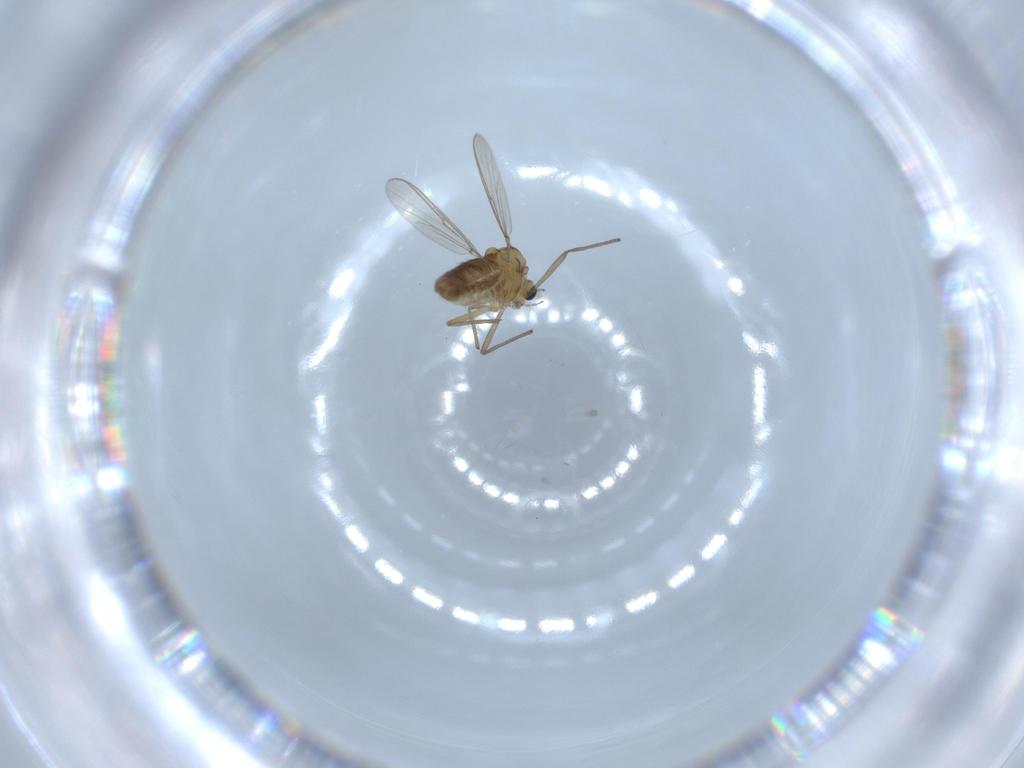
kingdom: Animalia
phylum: Arthropoda
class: Insecta
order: Diptera
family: Chironomidae
